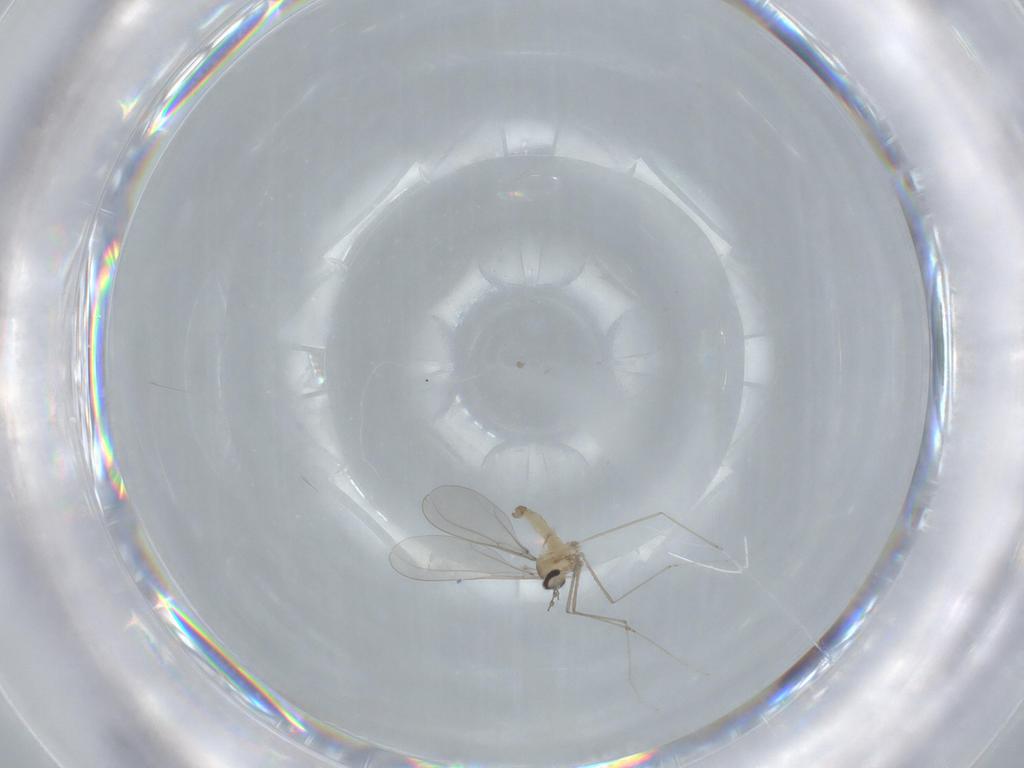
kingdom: Animalia
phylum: Arthropoda
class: Insecta
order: Diptera
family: Cecidomyiidae
